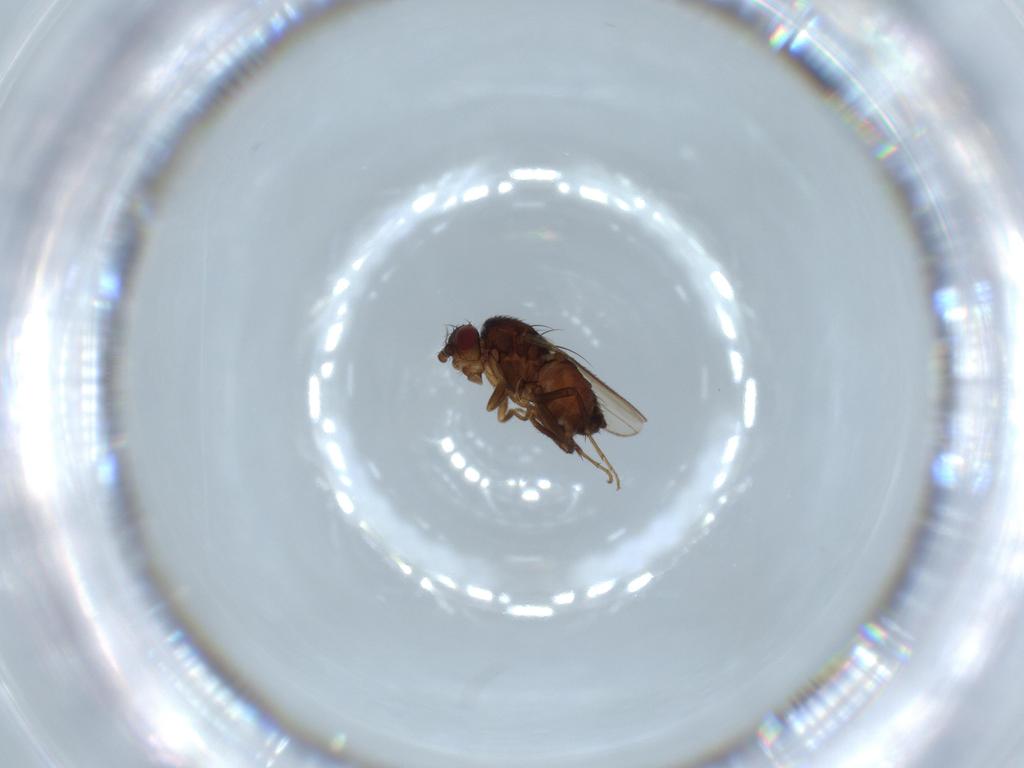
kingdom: Animalia
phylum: Arthropoda
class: Insecta
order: Diptera
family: Sphaeroceridae
